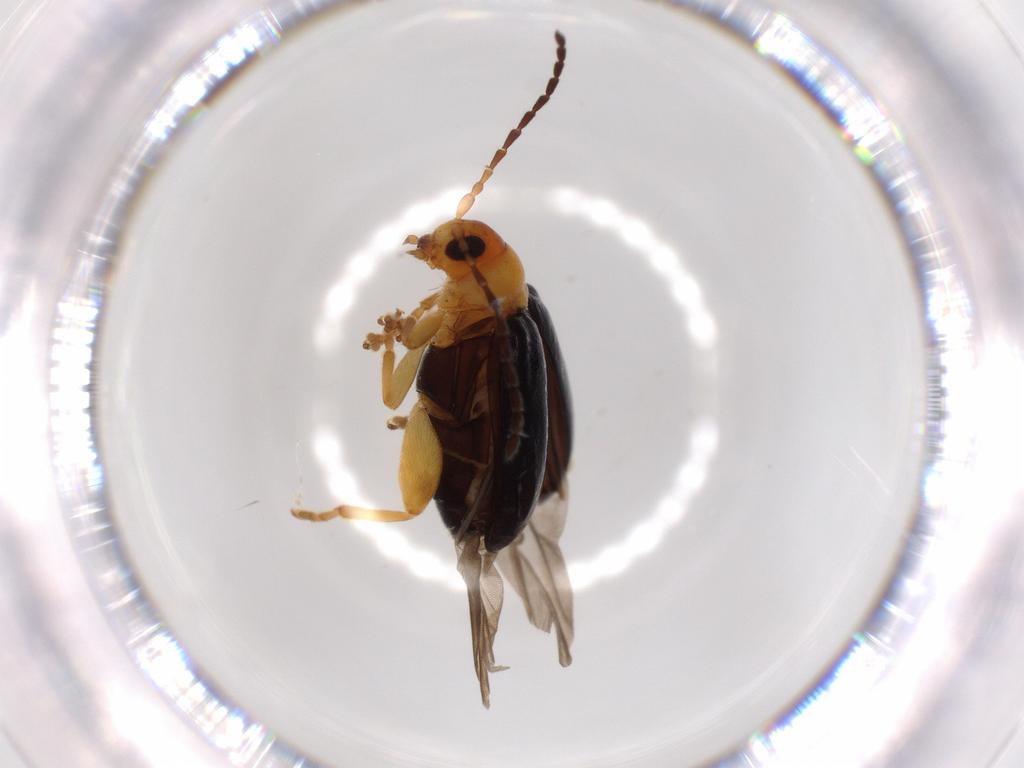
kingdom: Animalia
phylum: Arthropoda
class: Insecta
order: Coleoptera
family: Chrysomelidae
